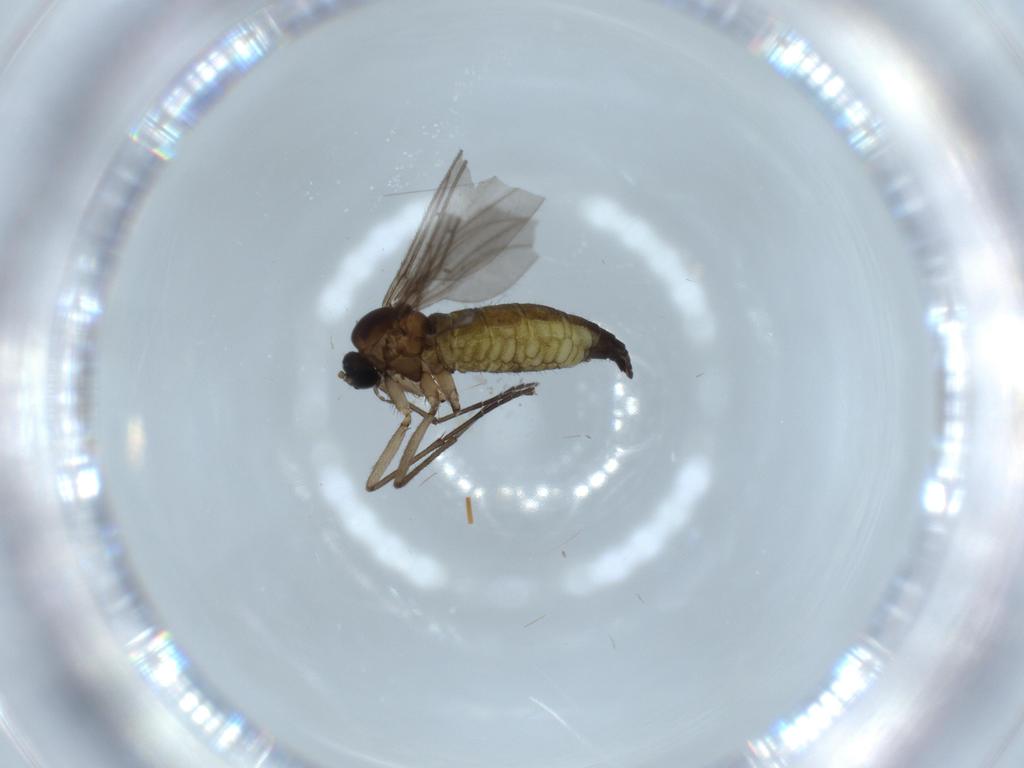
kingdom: Animalia
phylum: Arthropoda
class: Insecta
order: Diptera
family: Sciaridae
